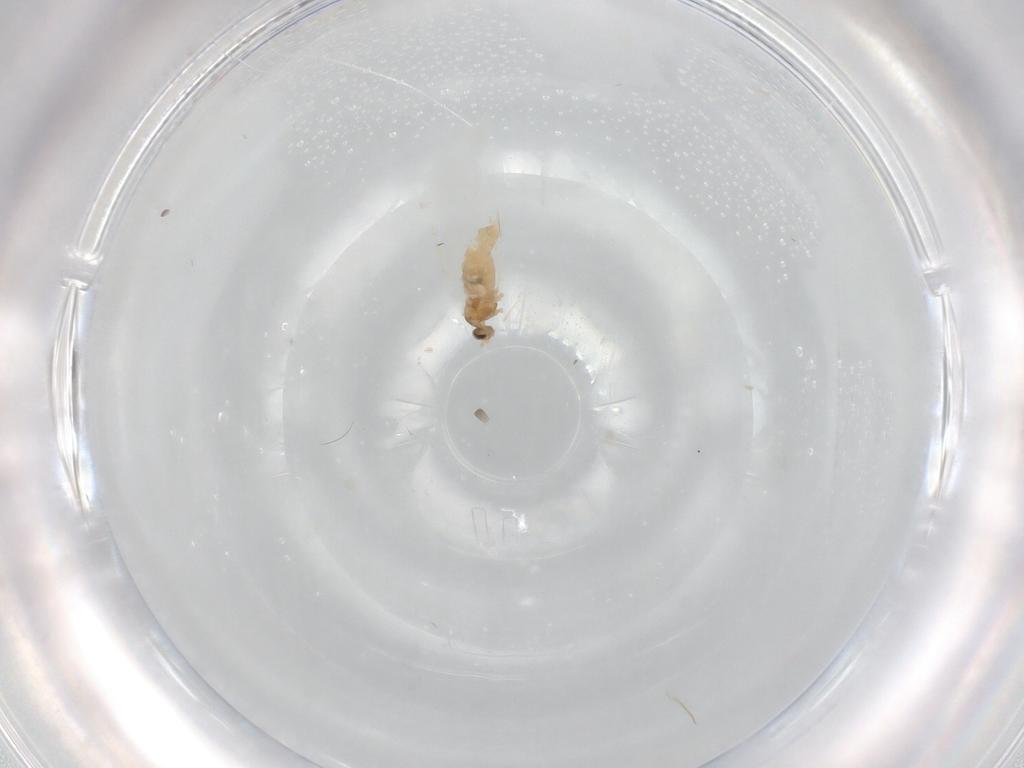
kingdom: Animalia
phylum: Arthropoda
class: Insecta
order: Diptera
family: Cecidomyiidae
